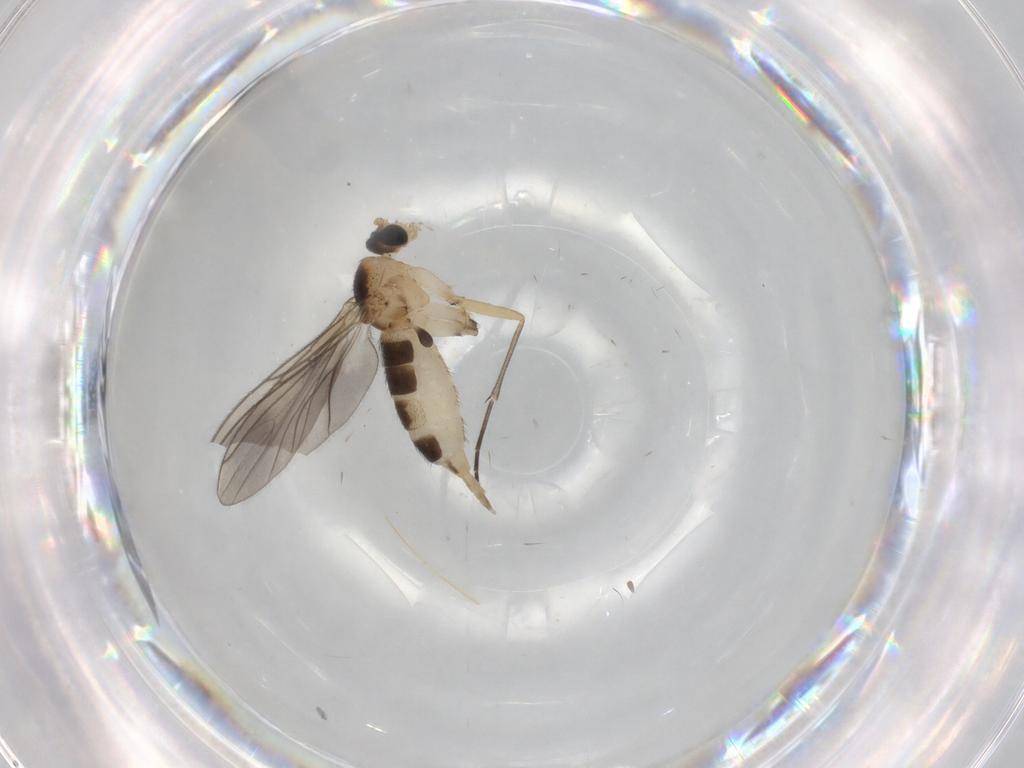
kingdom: Animalia
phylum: Arthropoda
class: Insecta
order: Diptera
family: Sciaridae
